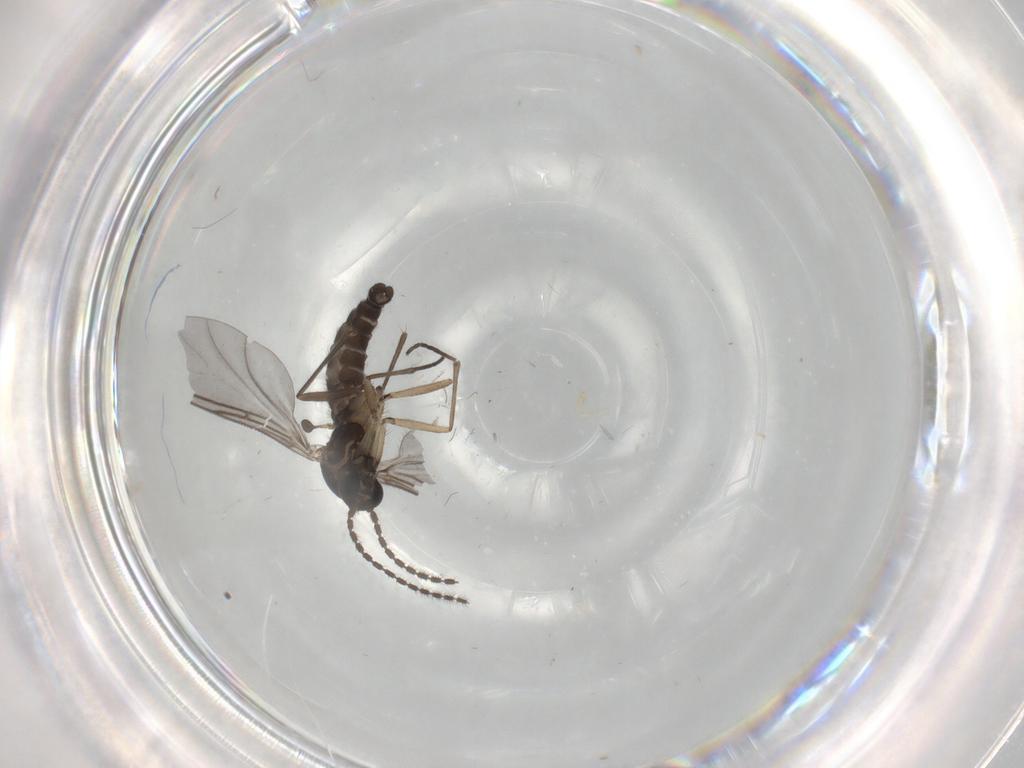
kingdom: Animalia
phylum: Arthropoda
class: Insecta
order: Diptera
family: Sciaridae
